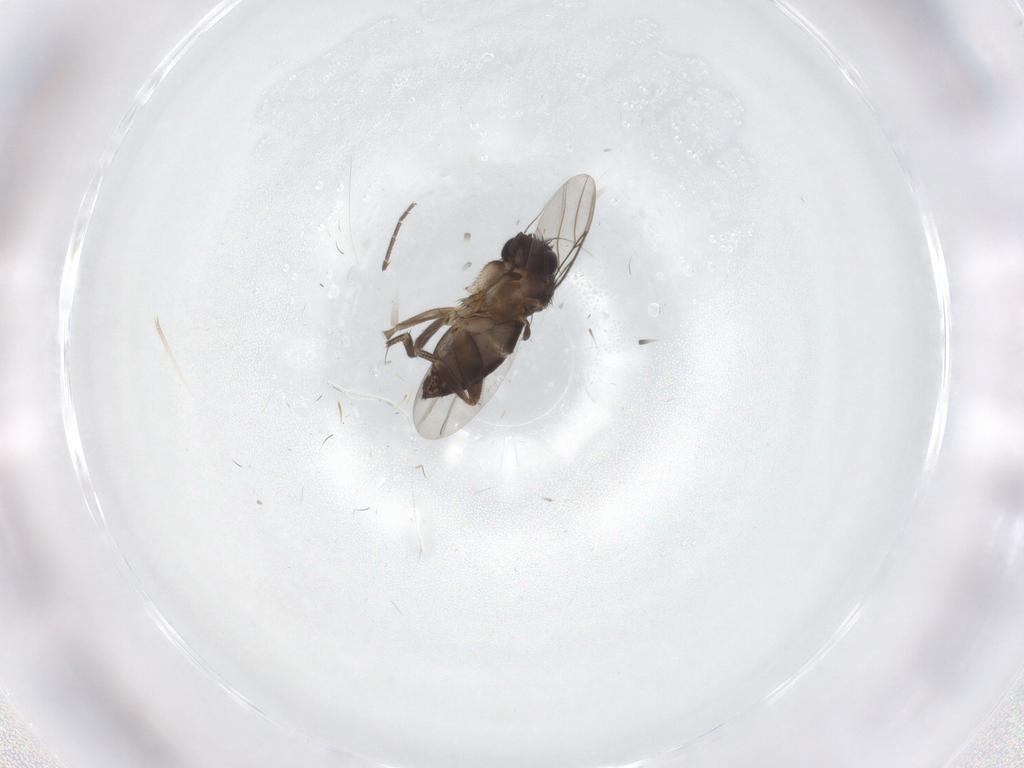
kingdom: Animalia
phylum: Arthropoda
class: Insecta
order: Diptera
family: Phoridae
